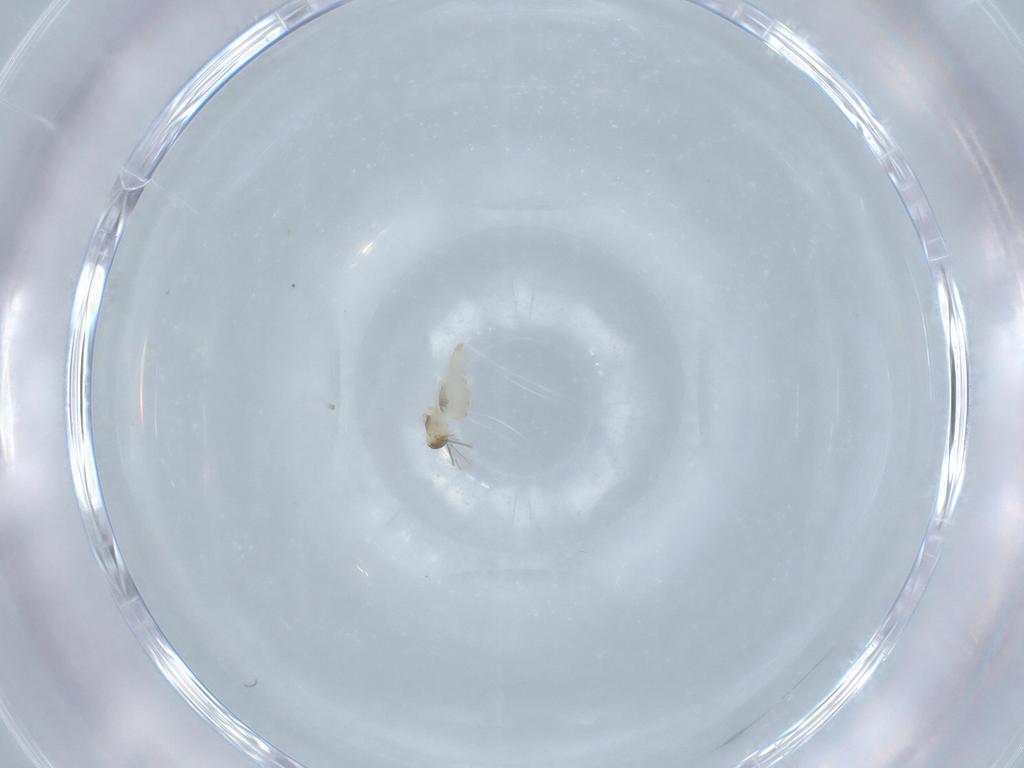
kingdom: Animalia
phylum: Arthropoda
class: Insecta
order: Diptera
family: Cecidomyiidae
